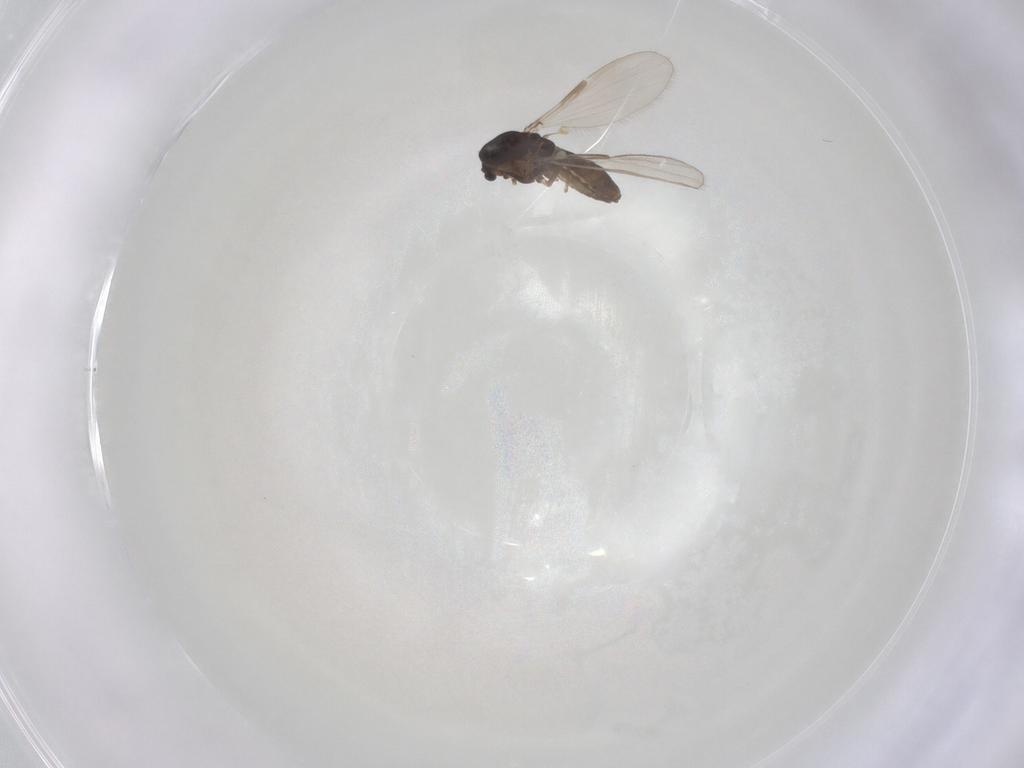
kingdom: Animalia
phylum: Arthropoda
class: Insecta
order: Diptera
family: Chironomidae
